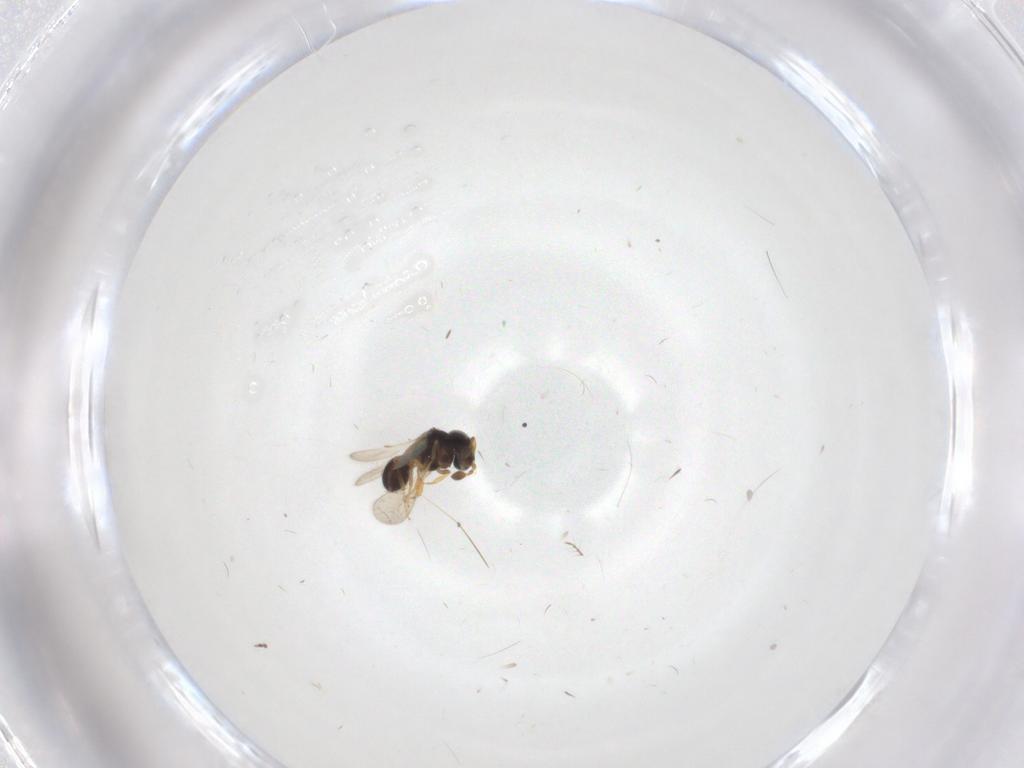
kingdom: Animalia
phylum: Arthropoda
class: Insecta
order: Hymenoptera
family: Scelionidae
